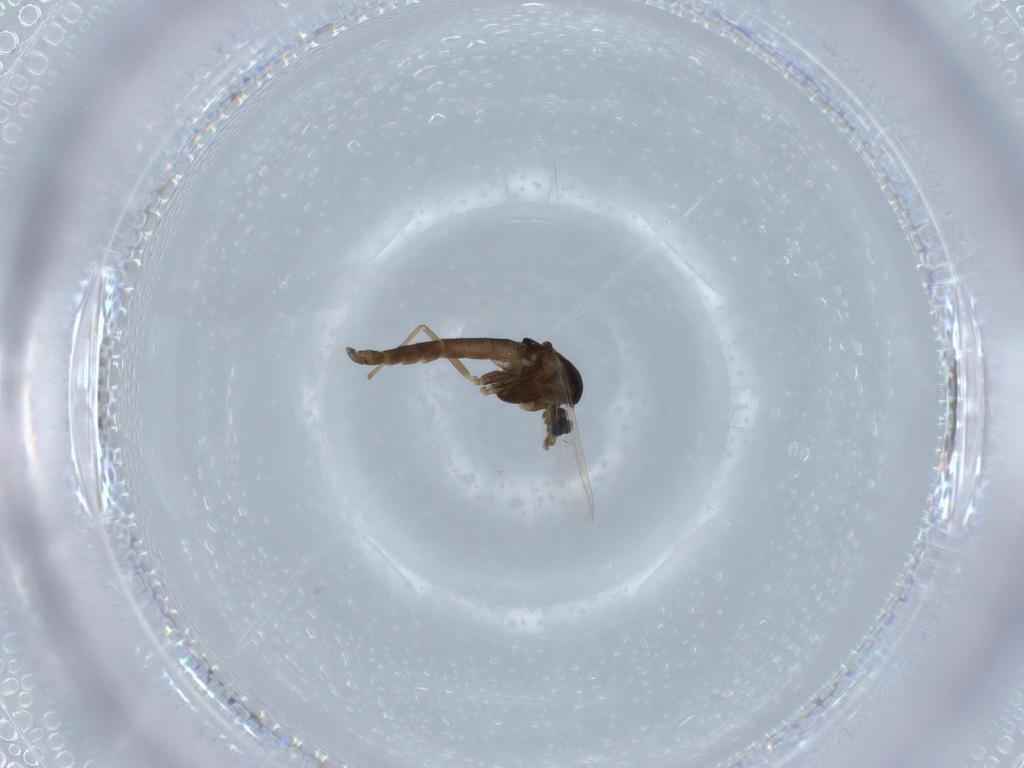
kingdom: Animalia
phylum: Arthropoda
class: Insecta
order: Diptera
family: Chironomidae
